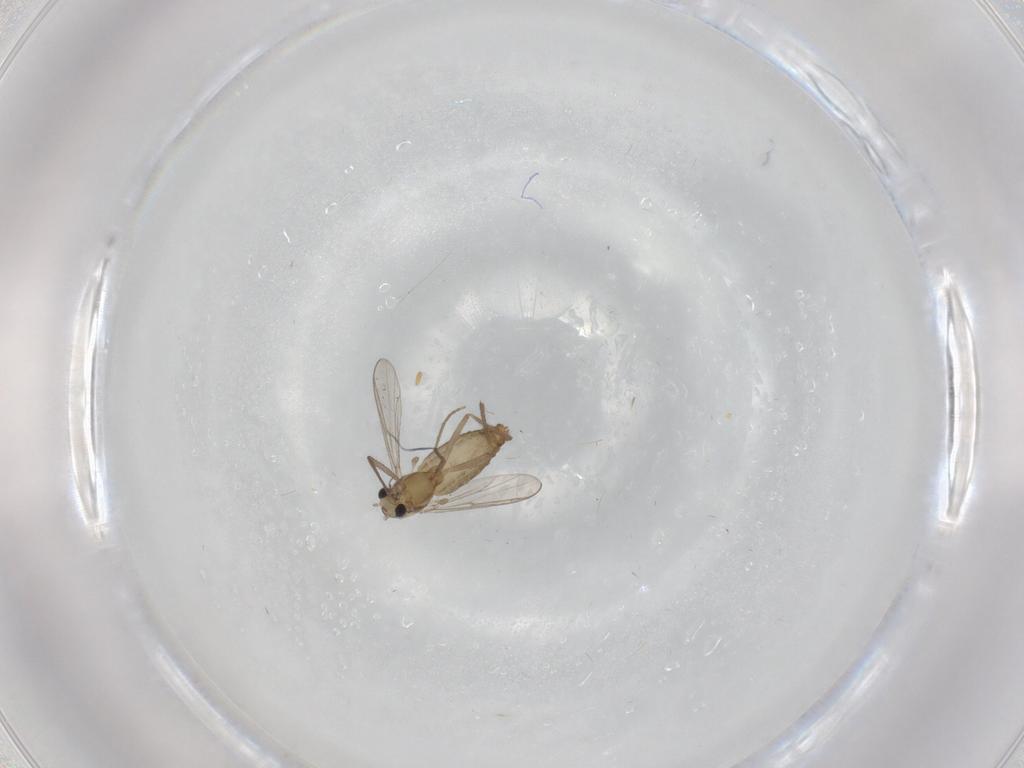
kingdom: Animalia
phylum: Arthropoda
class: Insecta
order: Diptera
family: Chironomidae
